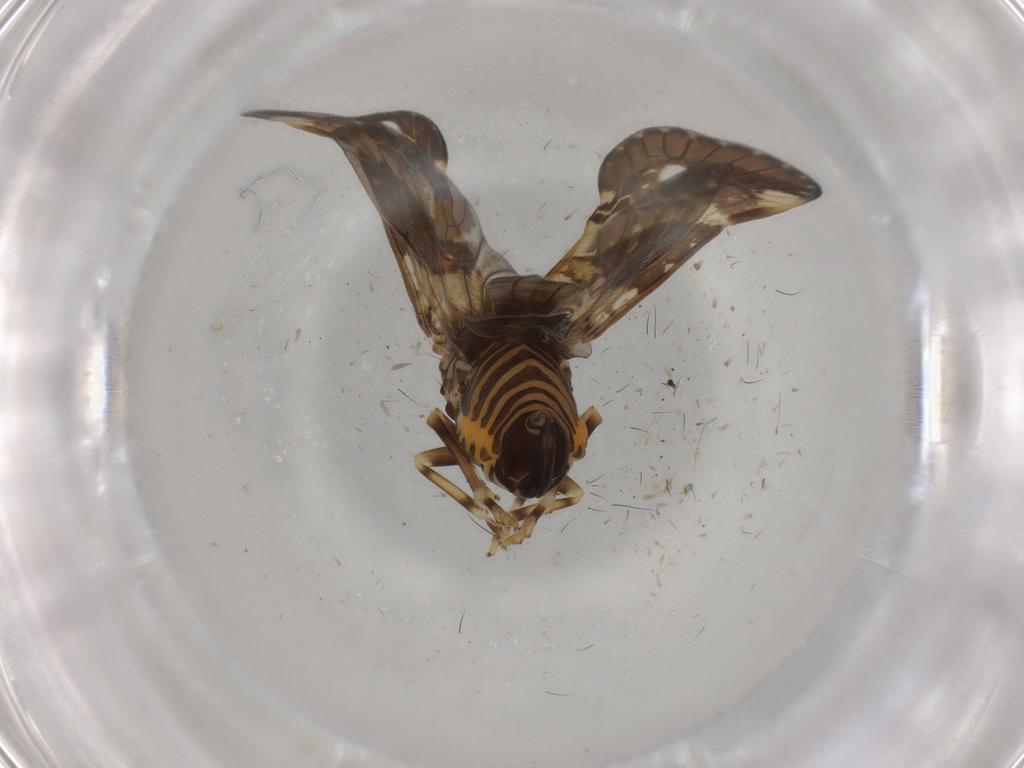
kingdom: Animalia
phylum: Arthropoda
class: Insecta
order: Hemiptera
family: Cixiidae
